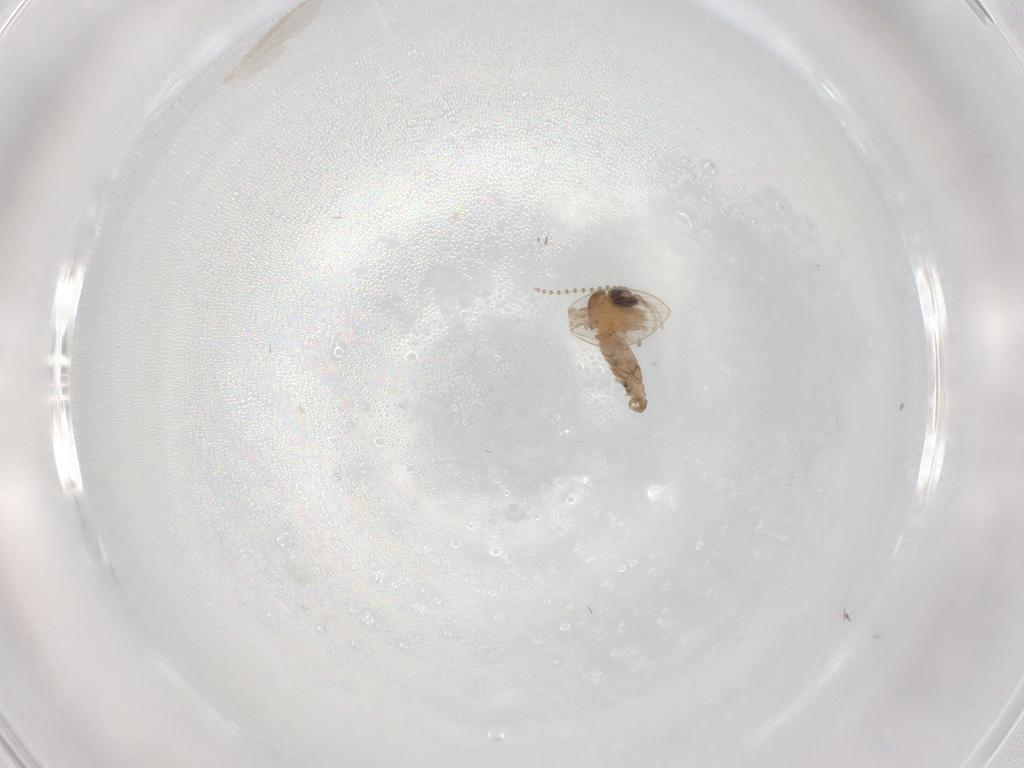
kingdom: Animalia
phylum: Arthropoda
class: Insecta
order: Diptera
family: Psychodidae
